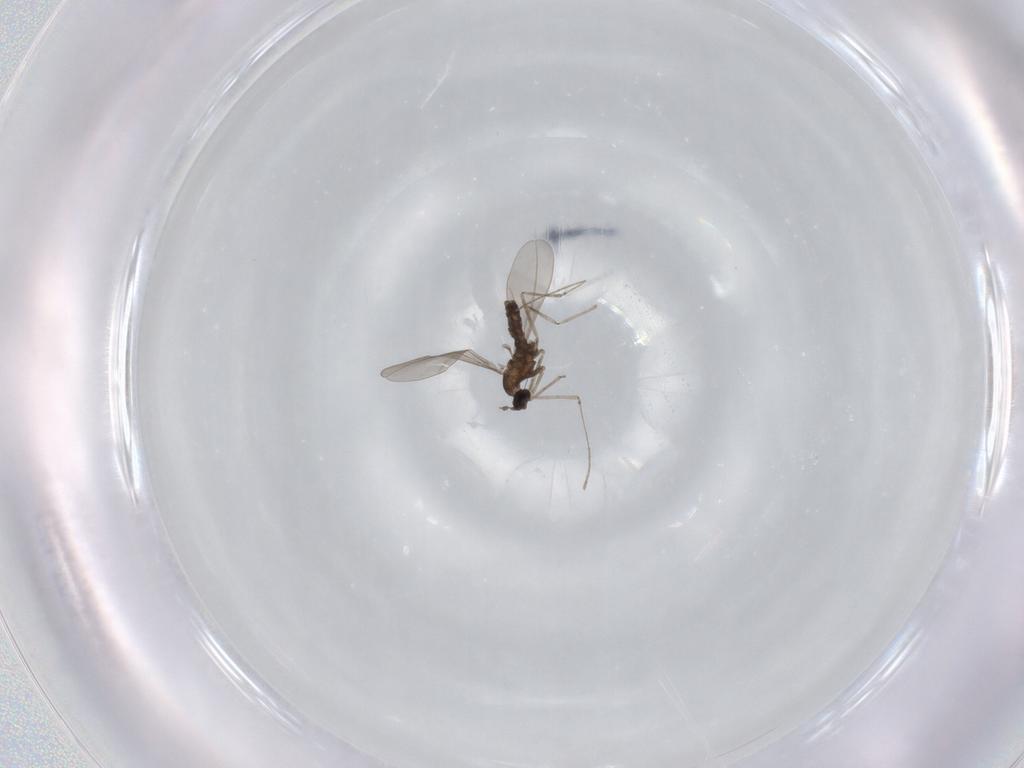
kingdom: Animalia
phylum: Arthropoda
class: Insecta
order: Diptera
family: Cecidomyiidae
